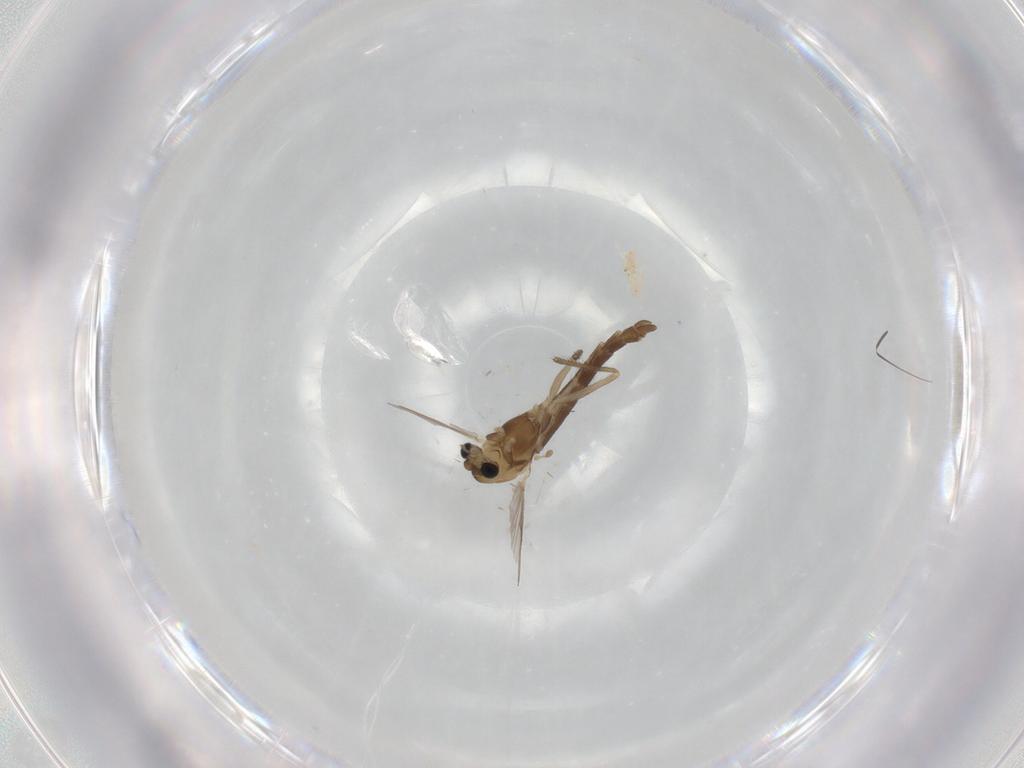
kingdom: Animalia
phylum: Arthropoda
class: Insecta
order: Diptera
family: Chironomidae
